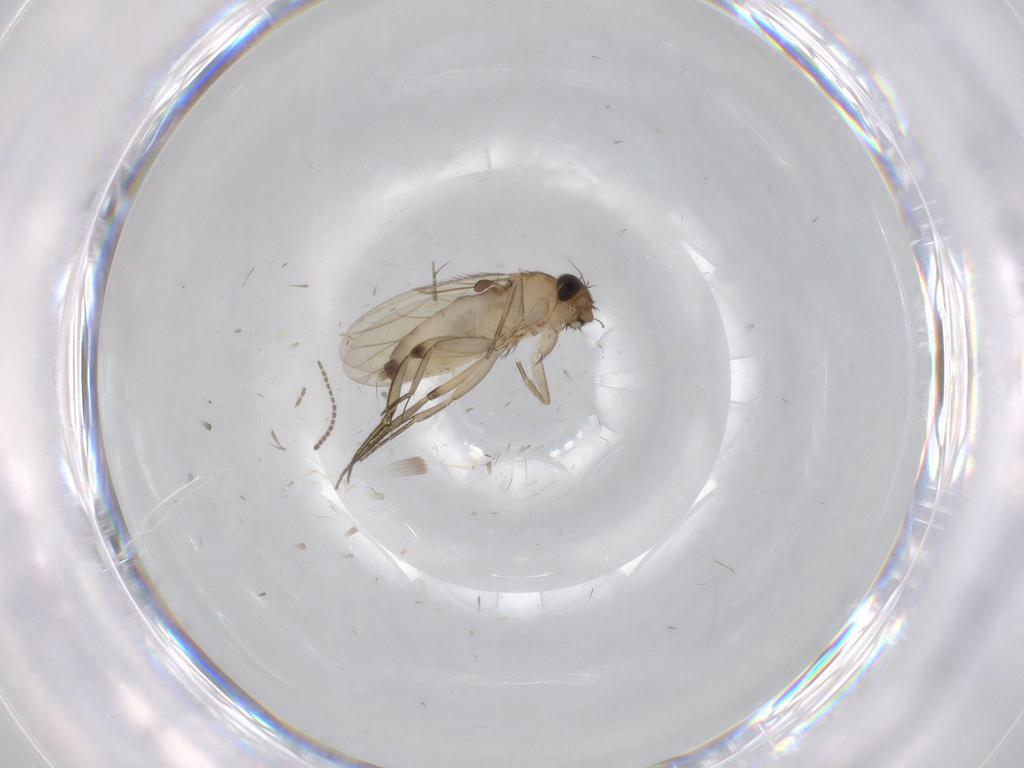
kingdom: Animalia
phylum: Arthropoda
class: Insecta
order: Diptera
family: Phoridae
